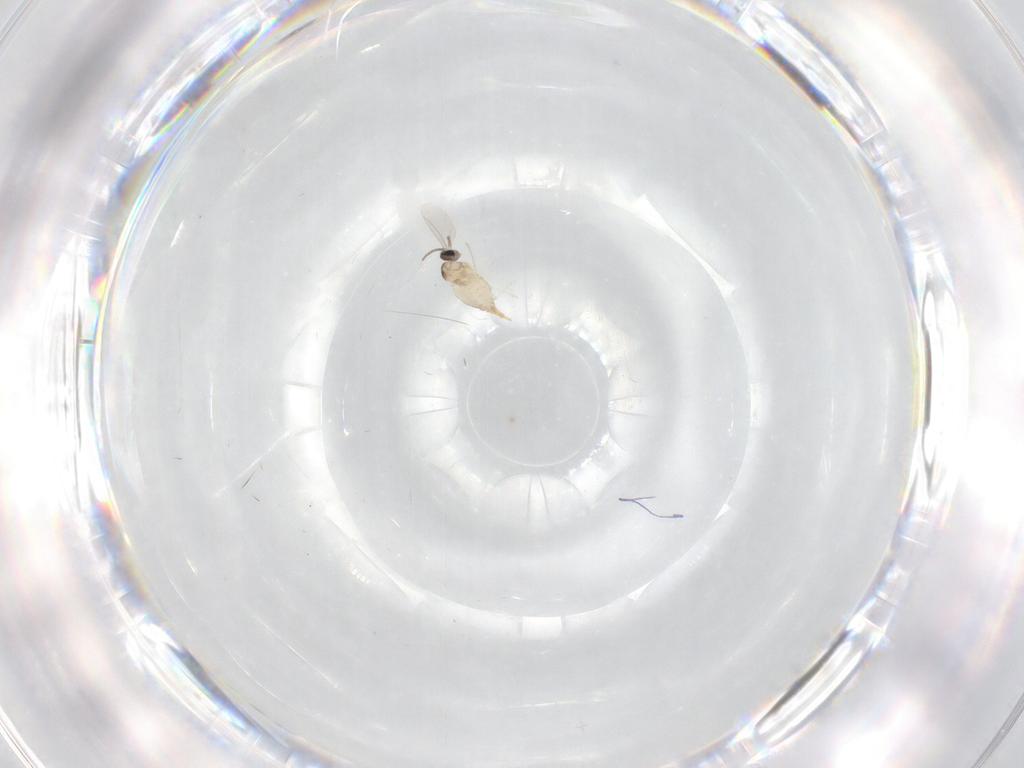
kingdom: Animalia
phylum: Arthropoda
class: Insecta
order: Diptera
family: Cecidomyiidae
